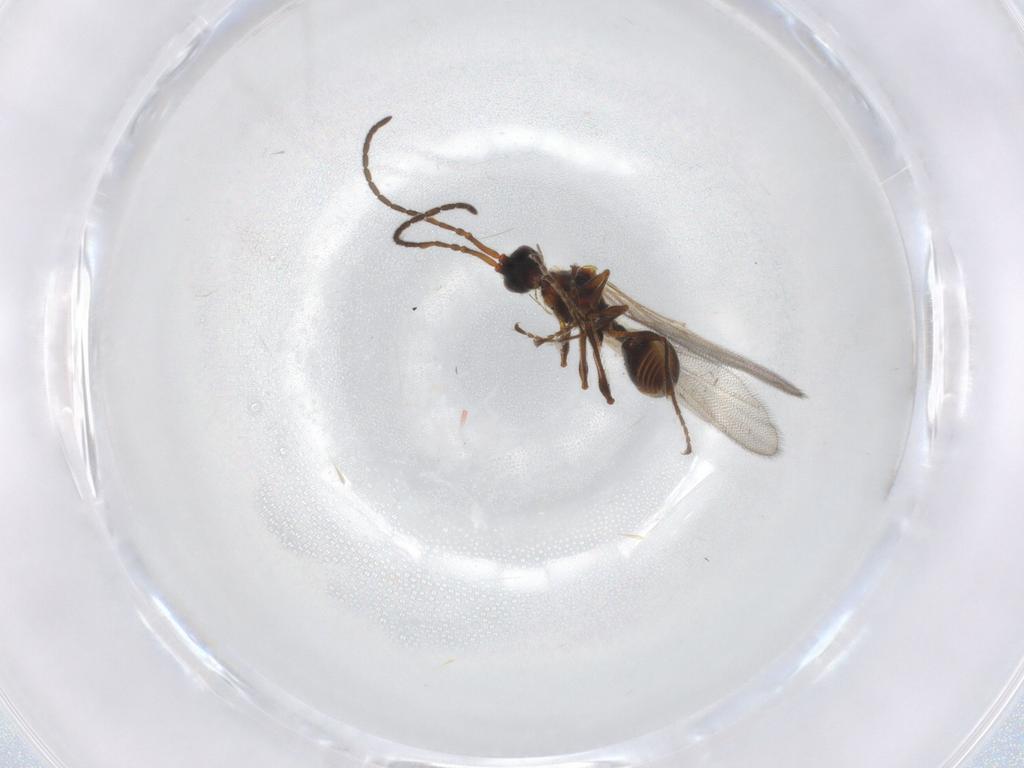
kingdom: Animalia
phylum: Arthropoda
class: Insecta
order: Hymenoptera
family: Diapriidae
